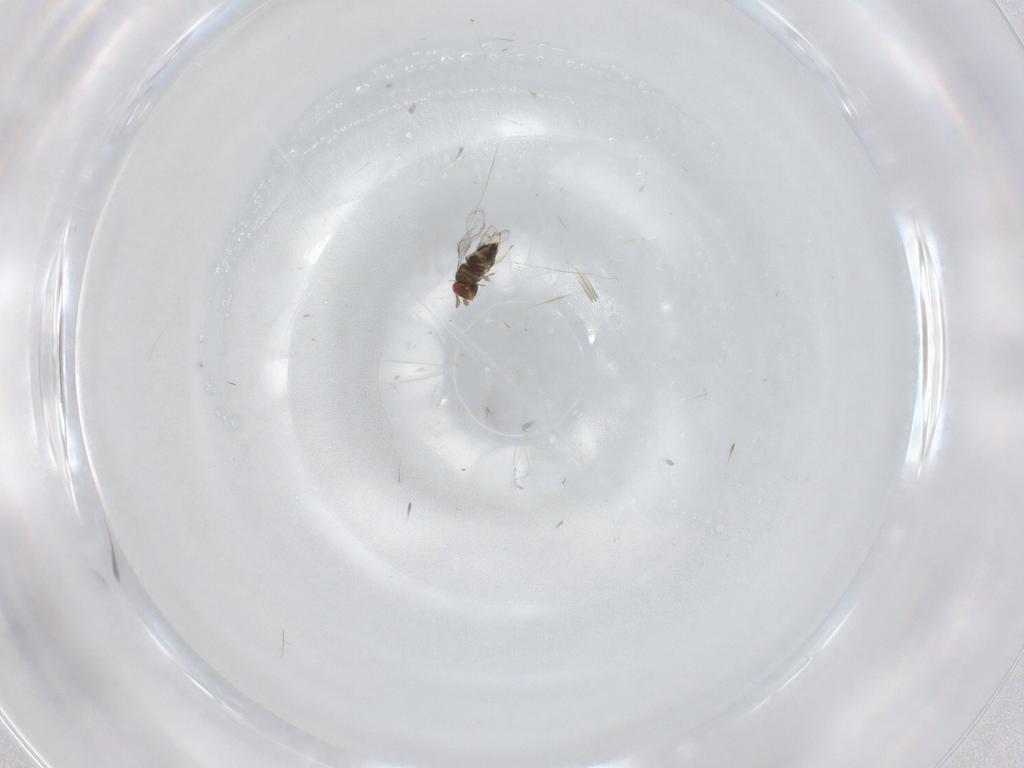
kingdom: Animalia
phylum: Arthropoda
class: Insecta
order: Hymenoptera
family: Trichogrammatidae
